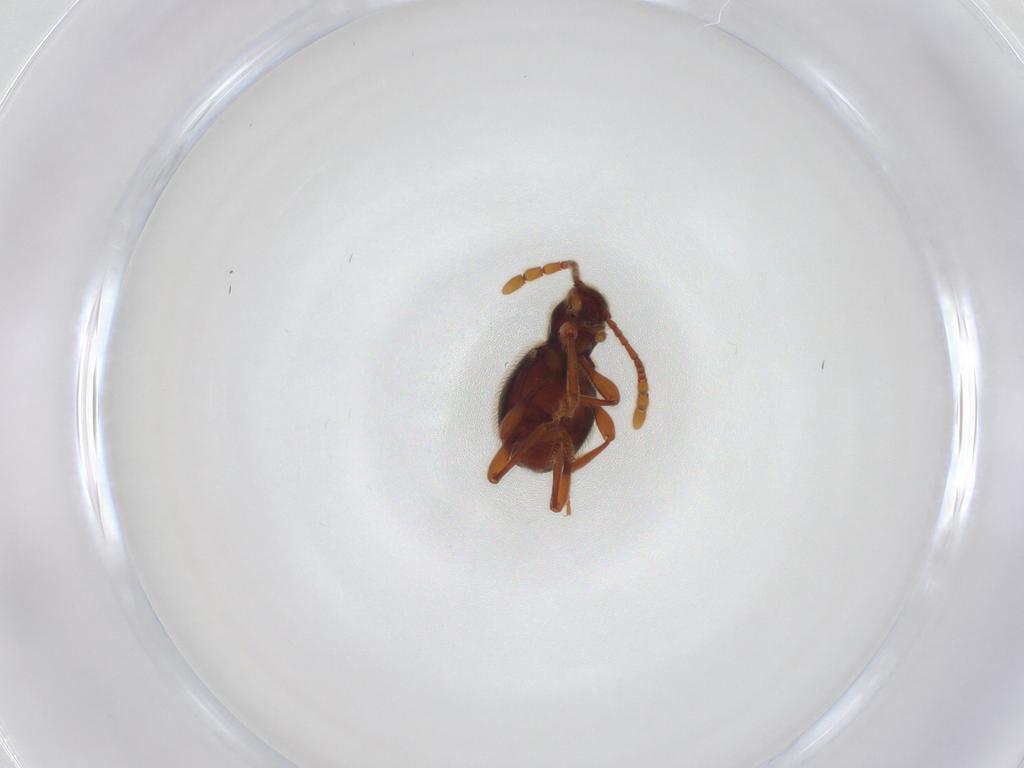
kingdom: Animalia
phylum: Arthropoda
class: Insecta
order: Coleoptera
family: Staphylinidae
